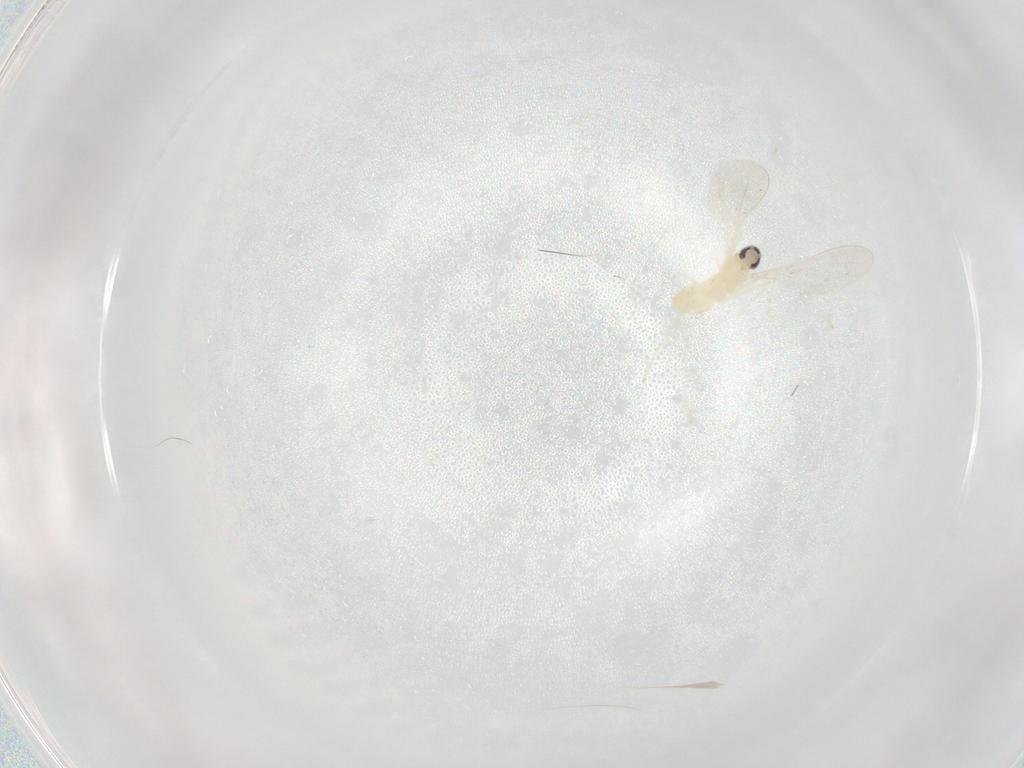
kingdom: Animalia
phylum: Arthropoda
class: Insecta
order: Diptera
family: Cecidomyiidae
